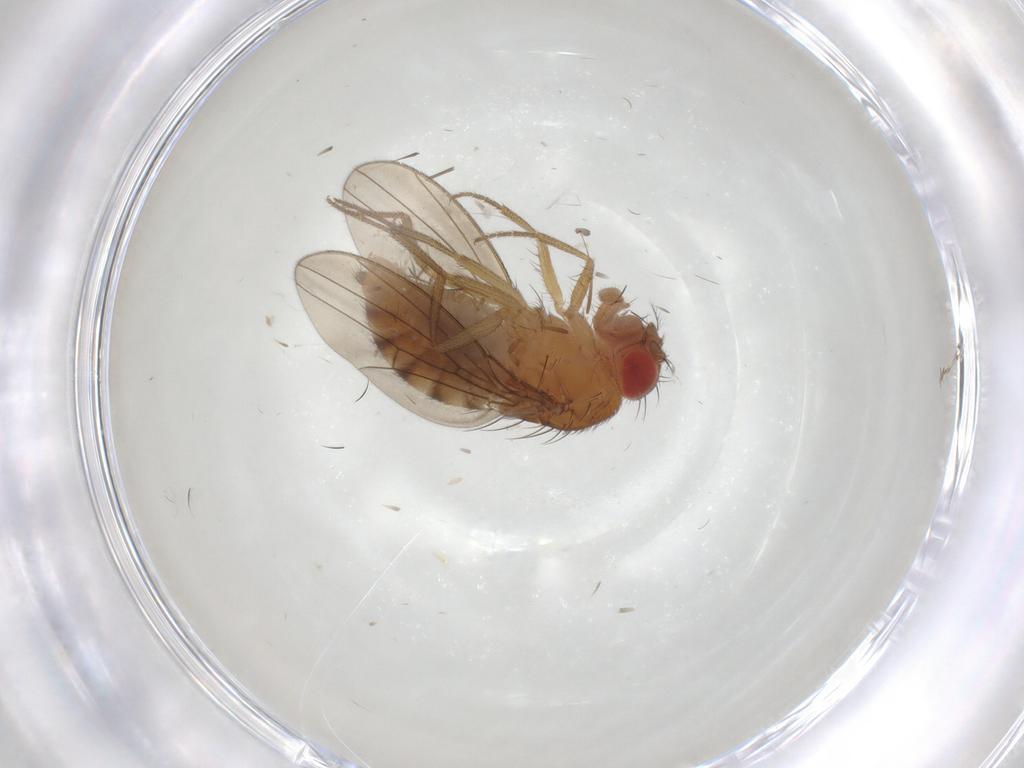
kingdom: Animalia
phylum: Arthropoda
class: Insecta
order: Diptera
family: Drosophilidae
